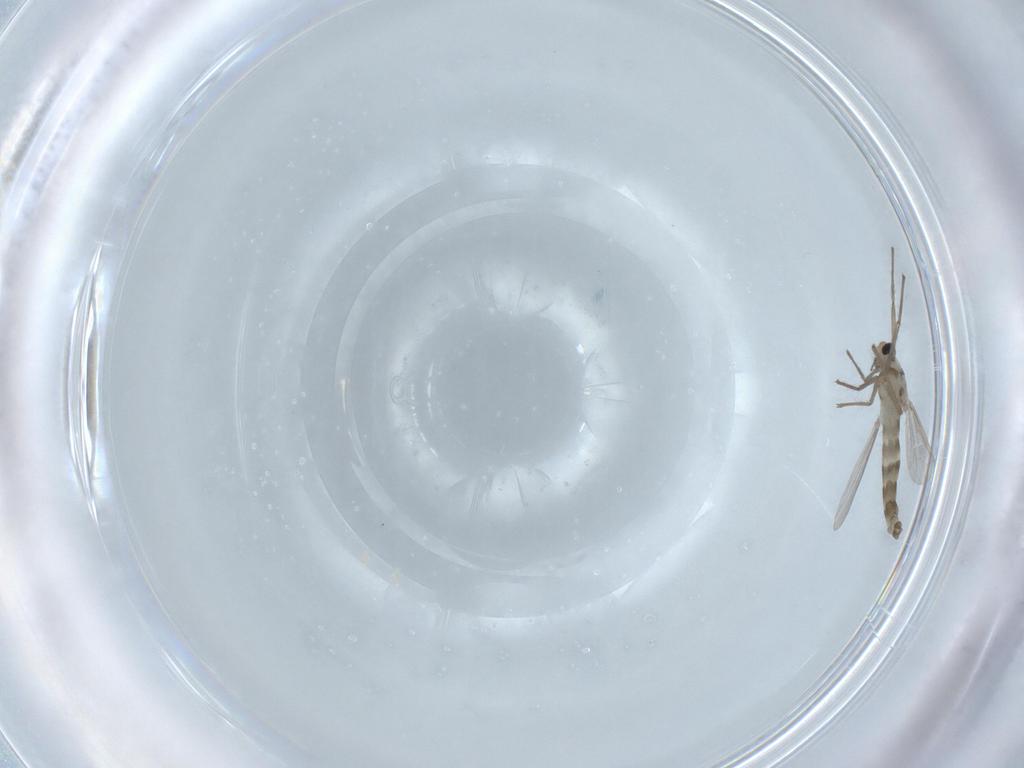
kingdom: Animalia
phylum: Arthropoda
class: Insecta
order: Diptera
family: Chironomidae
